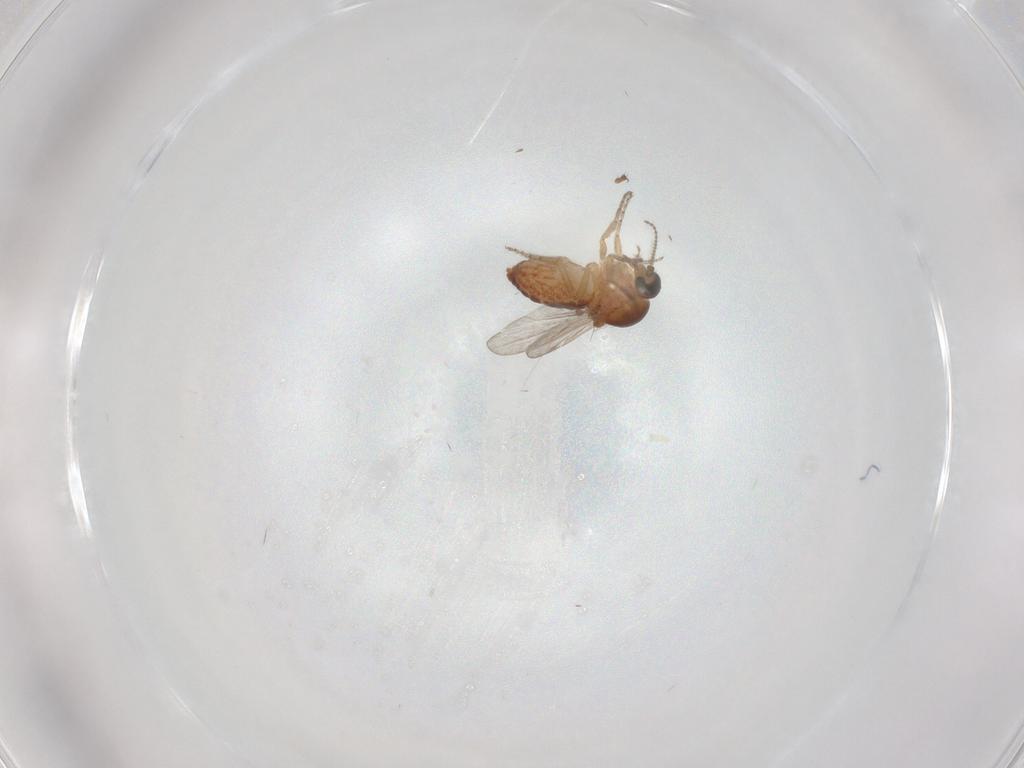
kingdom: Animalia
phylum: Arthropoda
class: Insecta
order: Diptera
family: Ceratopogonidae
